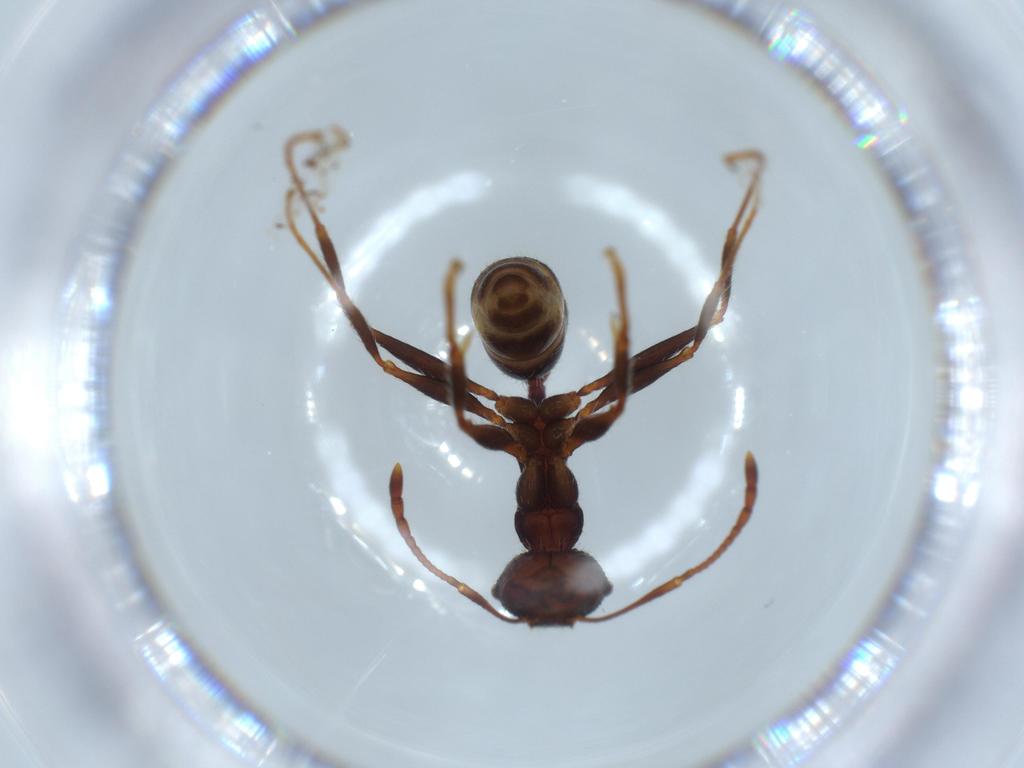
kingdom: Animalia
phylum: Arthropoda
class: Insecta
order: Hymenoptera
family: Formicidae
